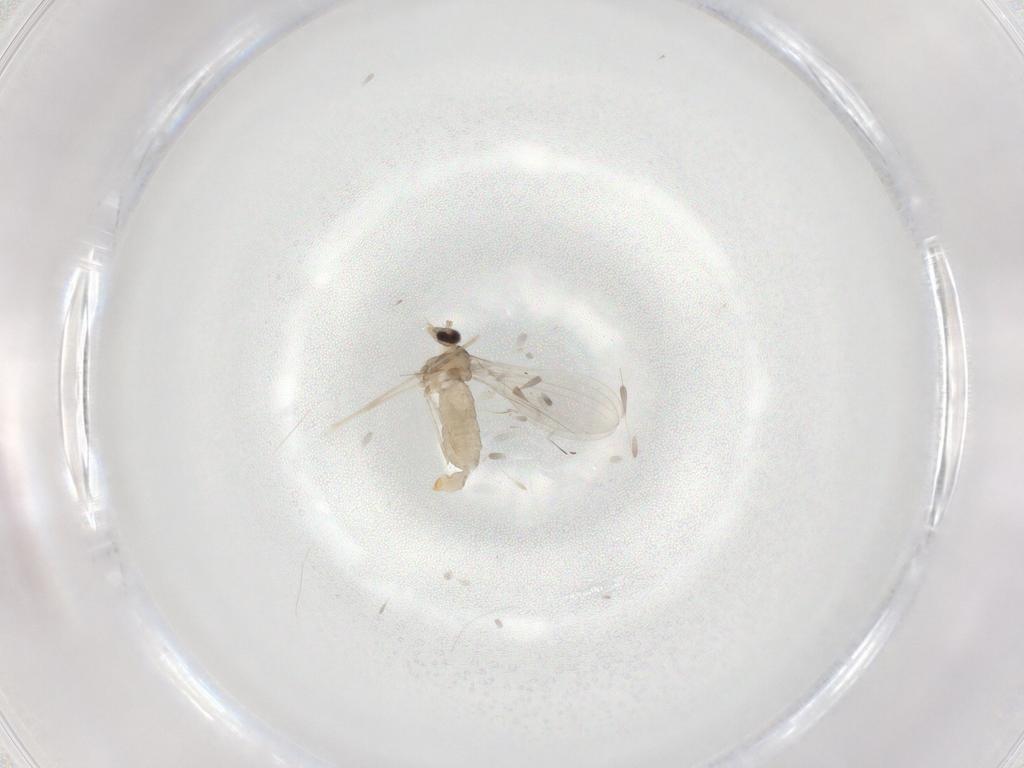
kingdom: Animalia
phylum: Arthropoda
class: Insecta
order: Diptera
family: Cecidomyiidae
